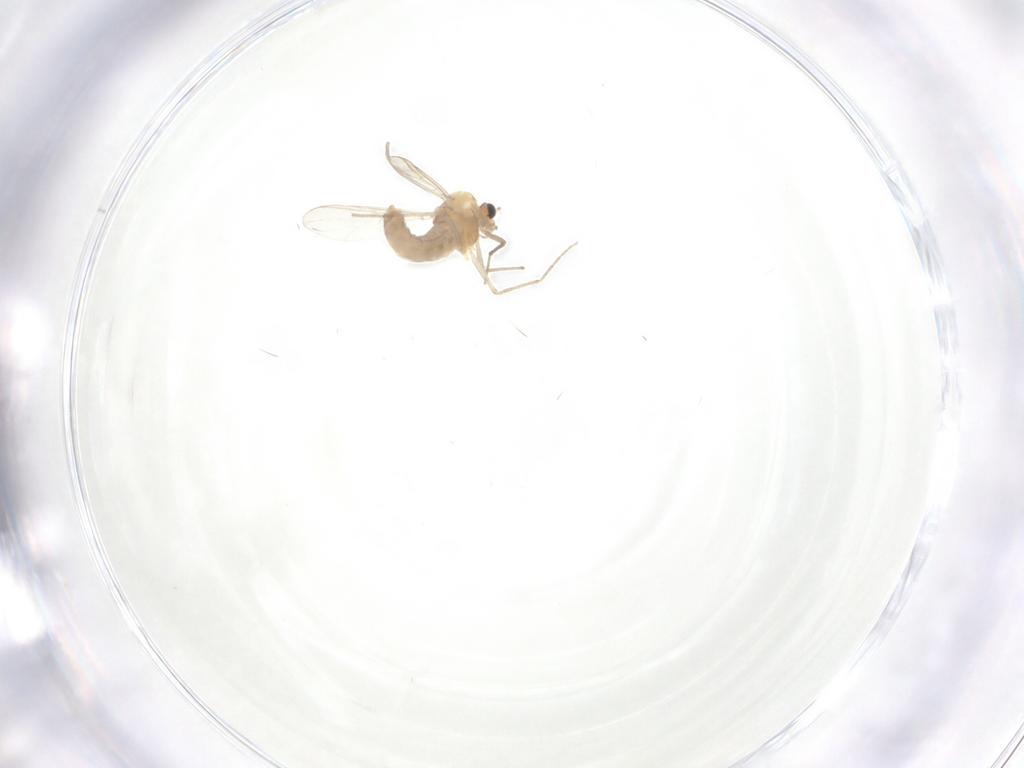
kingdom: Animalia
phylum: Arthropoda
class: Insecta
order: Diptera
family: Chironomidae
